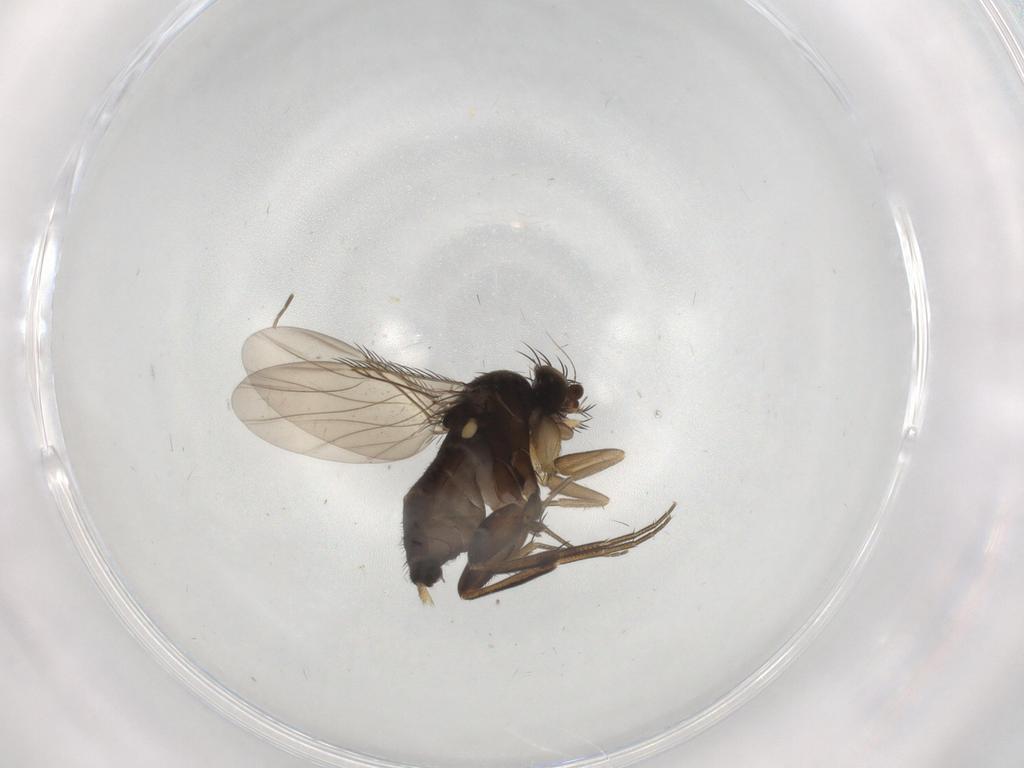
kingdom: Animalia
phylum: Arthropoda
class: Insecta
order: Diptera
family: Phoridae
